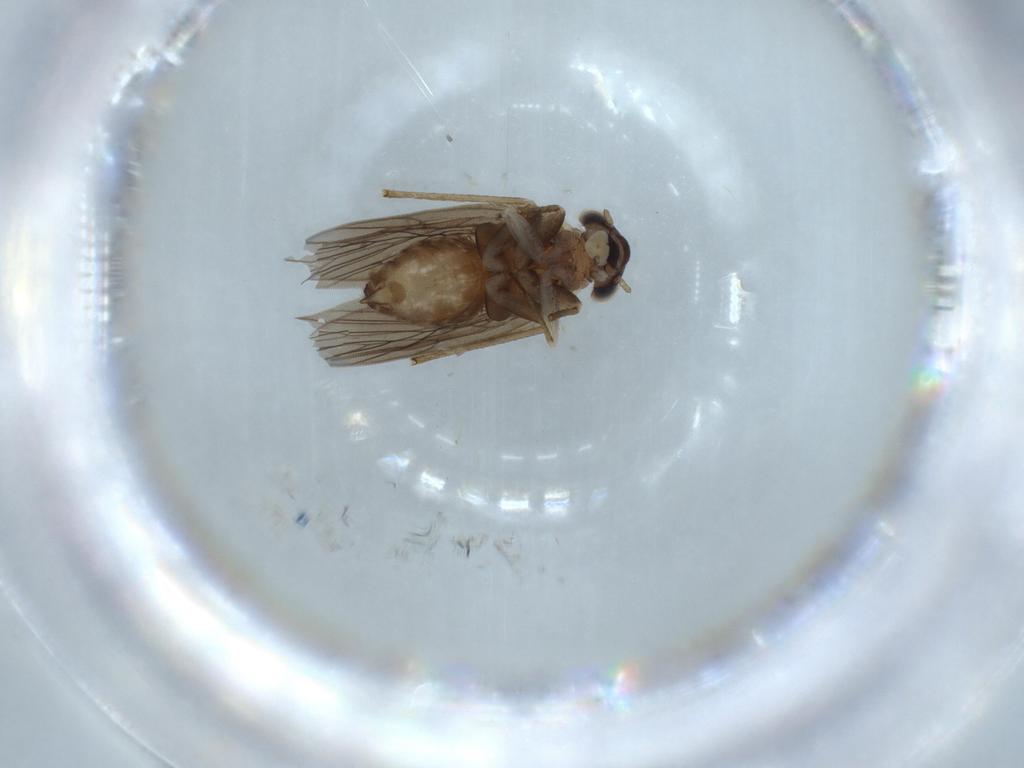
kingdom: Animalia
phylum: Arthropoda
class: Insecta
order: Psocodea
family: Lepidopsocidae
